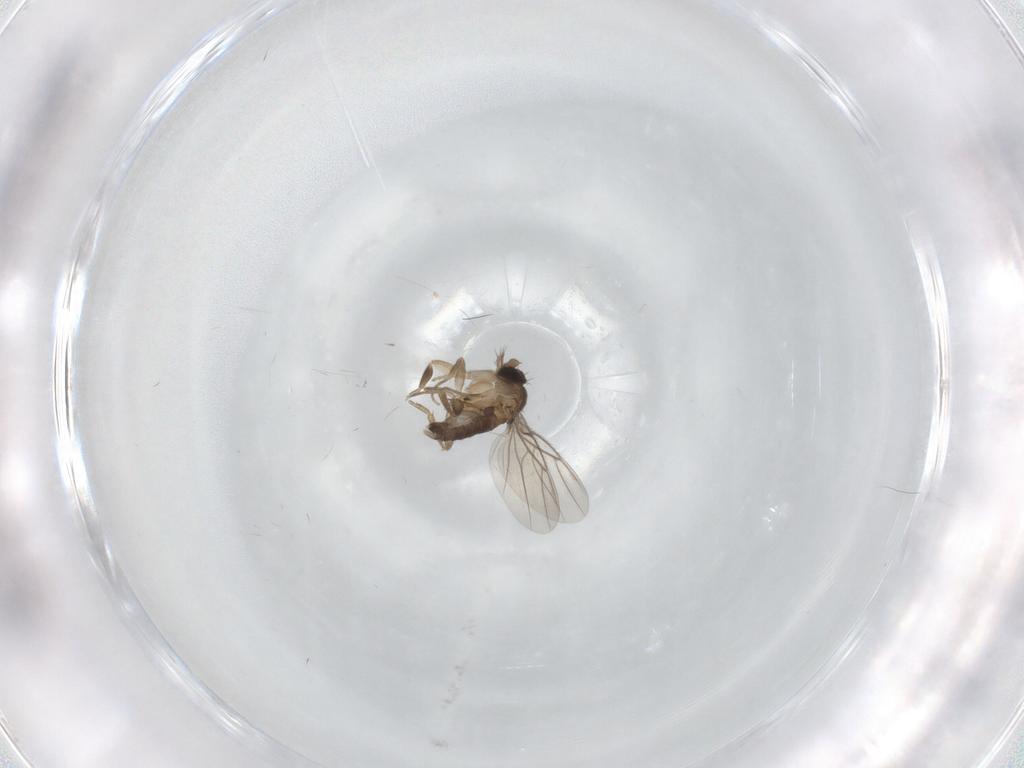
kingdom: Animalia
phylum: Arthropoda
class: Insecta
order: Diptera
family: Phoridae
